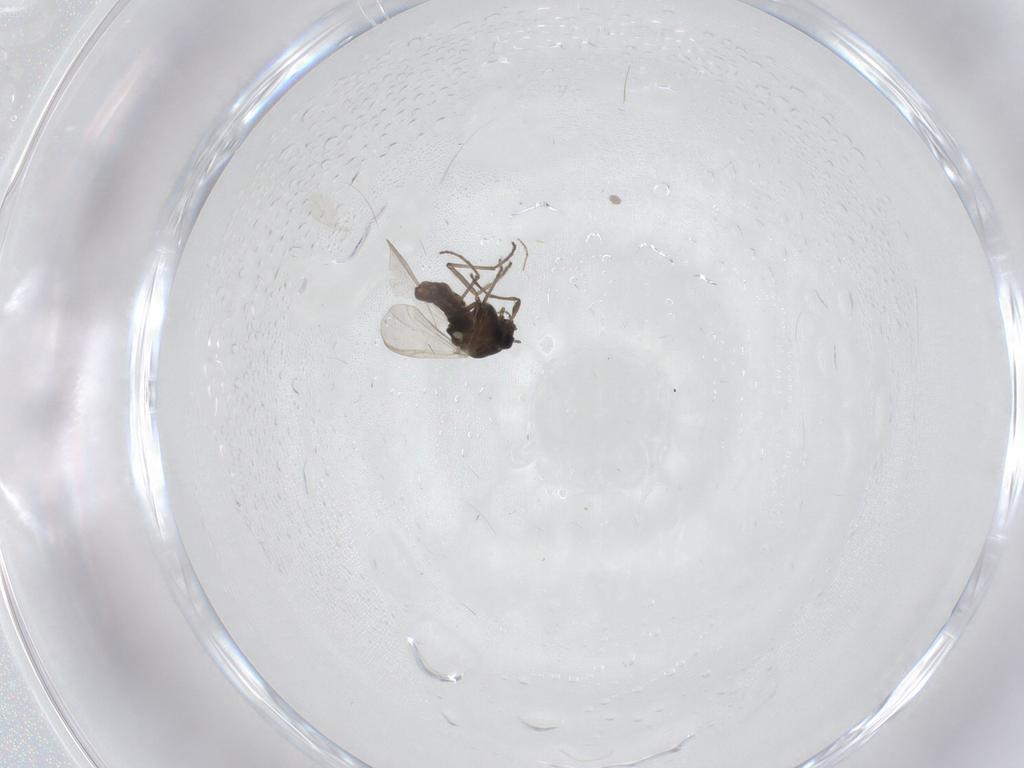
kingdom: Animalia
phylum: Arthropoda
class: Insecta
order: Diptera
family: Chironomidae
